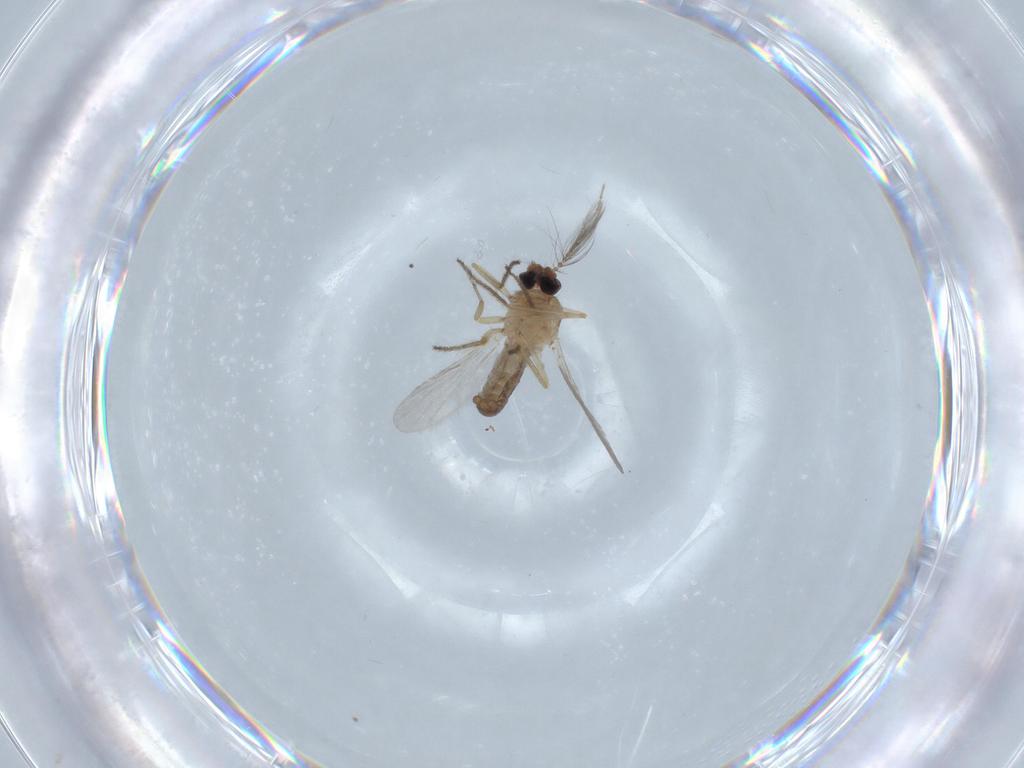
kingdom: Animalia
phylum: Arthropoda
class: Insecta
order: Diptera
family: Ceratopogonidae
